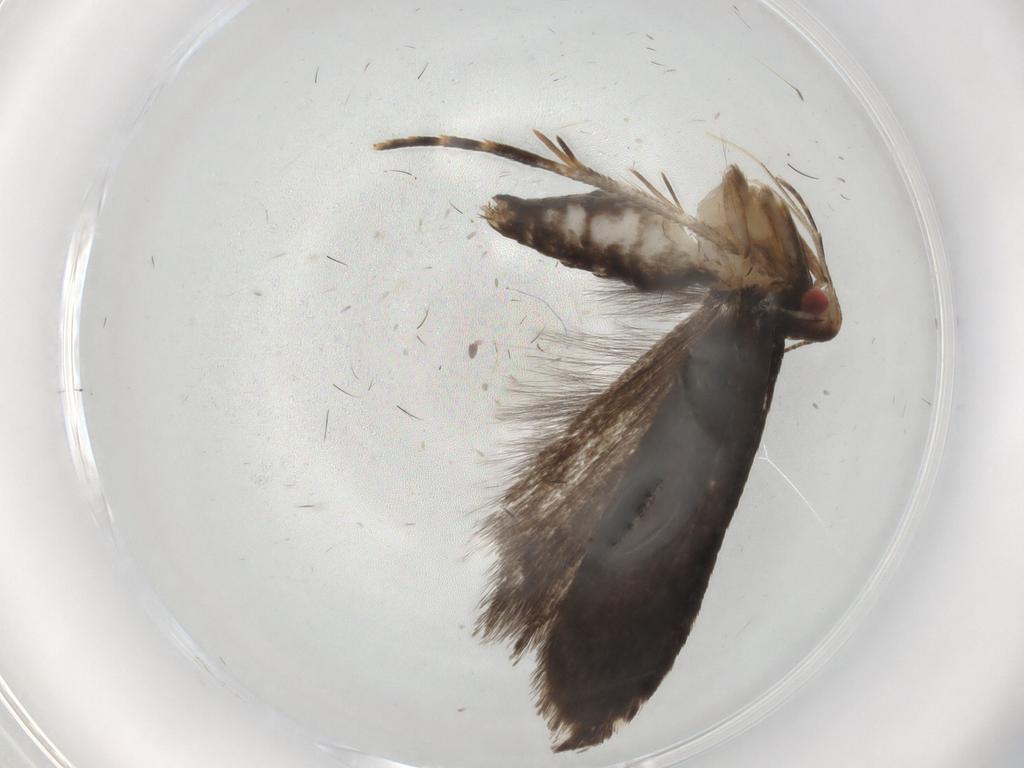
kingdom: Animalia
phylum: Arthropoda
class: Insecta
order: Lepidoptera
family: Gelechiidae
